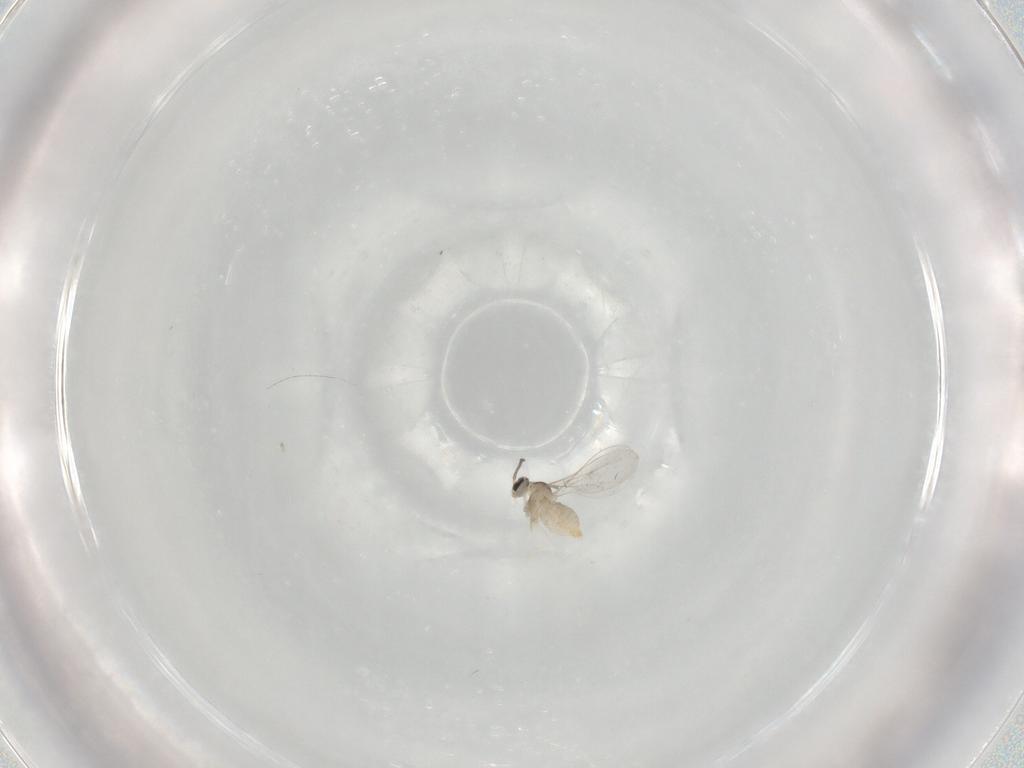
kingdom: Animalia
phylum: Arthropoda
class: Insecta
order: Diptera
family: Cecidomyiidae
